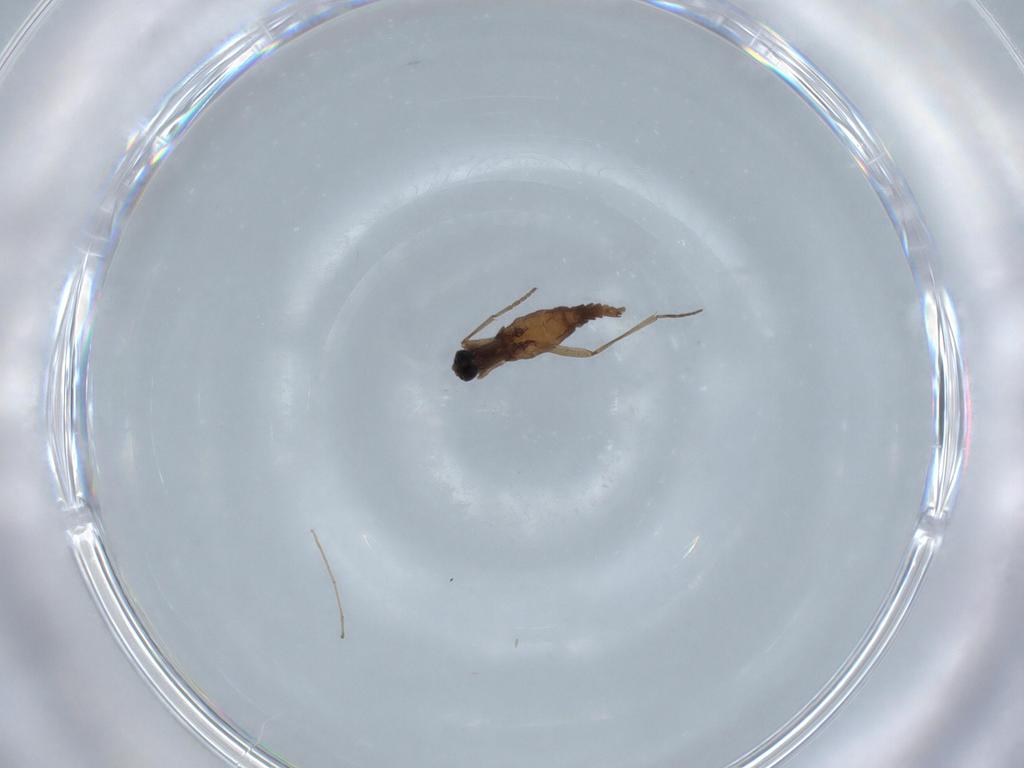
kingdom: Animalia
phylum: Arthropoda
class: Insecta
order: Diptera
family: Sciaridae
